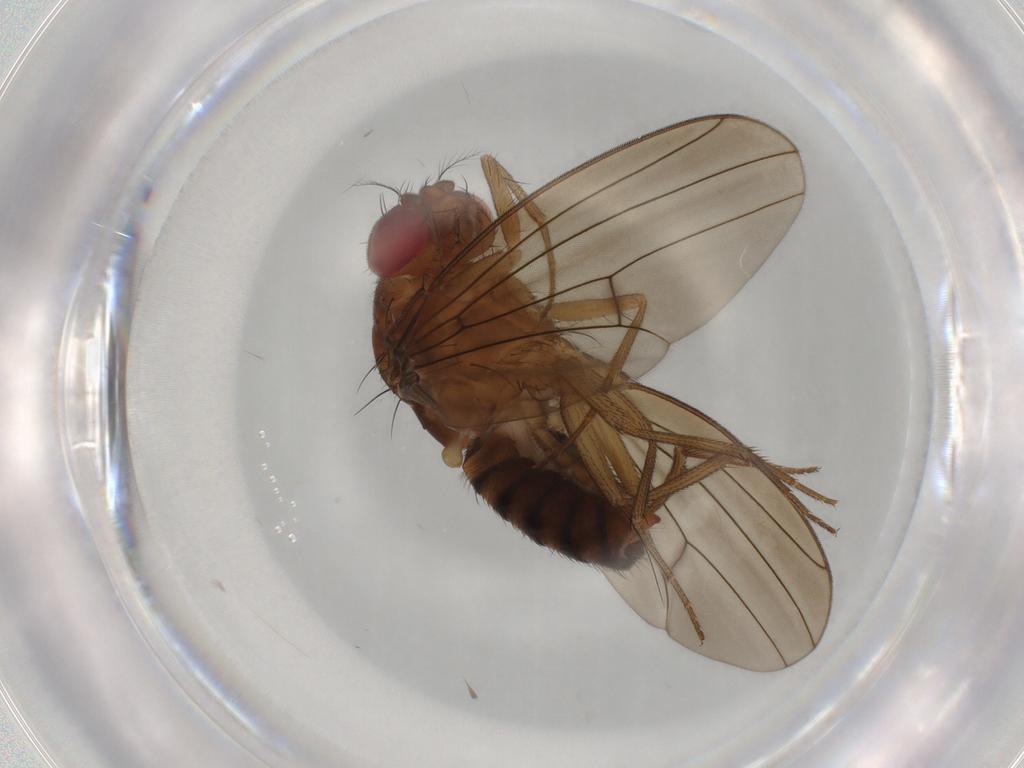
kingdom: Animalia
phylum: Arthropoda
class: Insecta
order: Diptera
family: Drosophilidae
